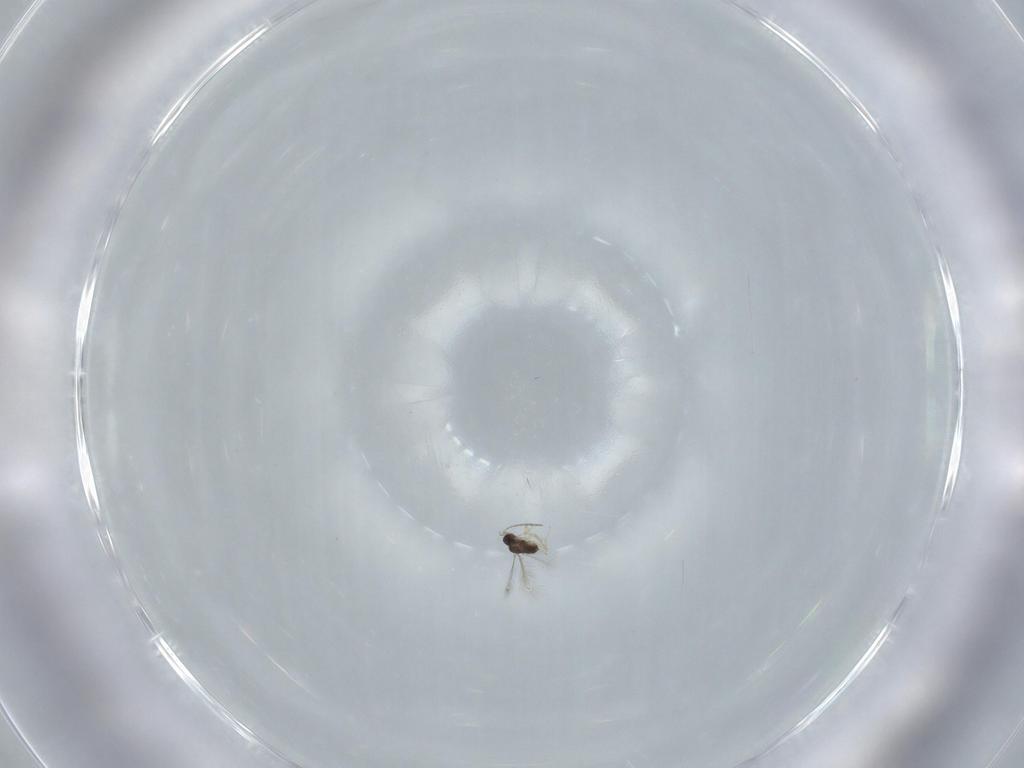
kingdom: Animalia
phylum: Arthropoda
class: Insecta
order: Hymenoptera
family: Mymaridae
